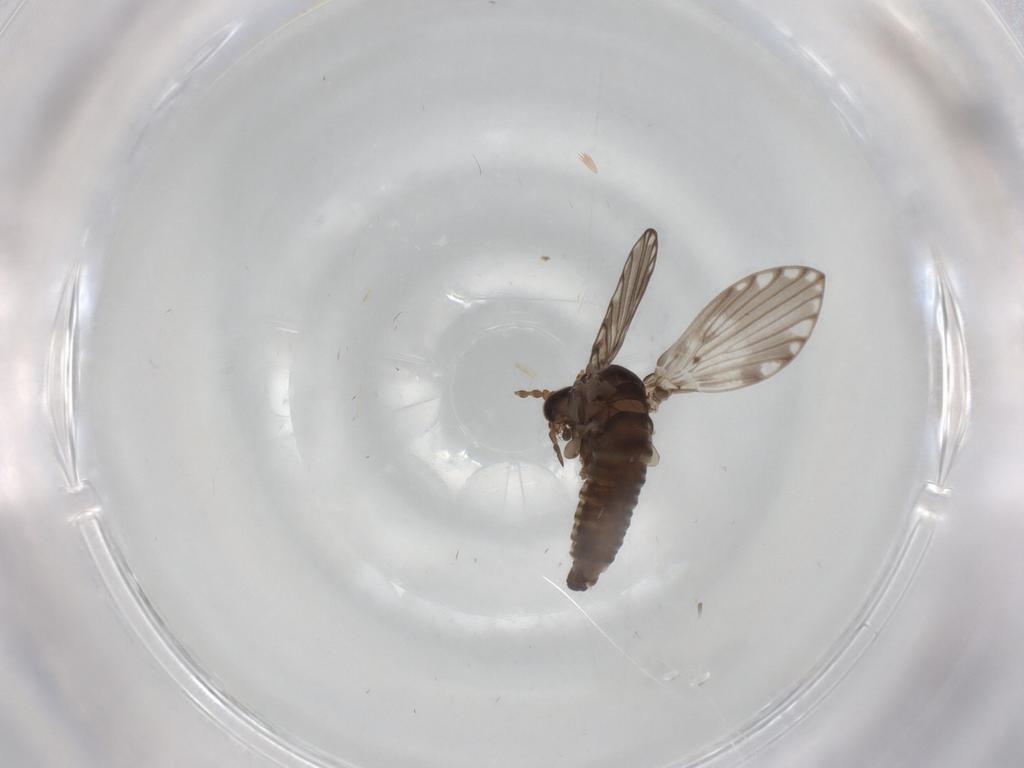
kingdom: Animalia
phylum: Arthropoda
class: Insecta
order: Diptera
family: Psychodidae
